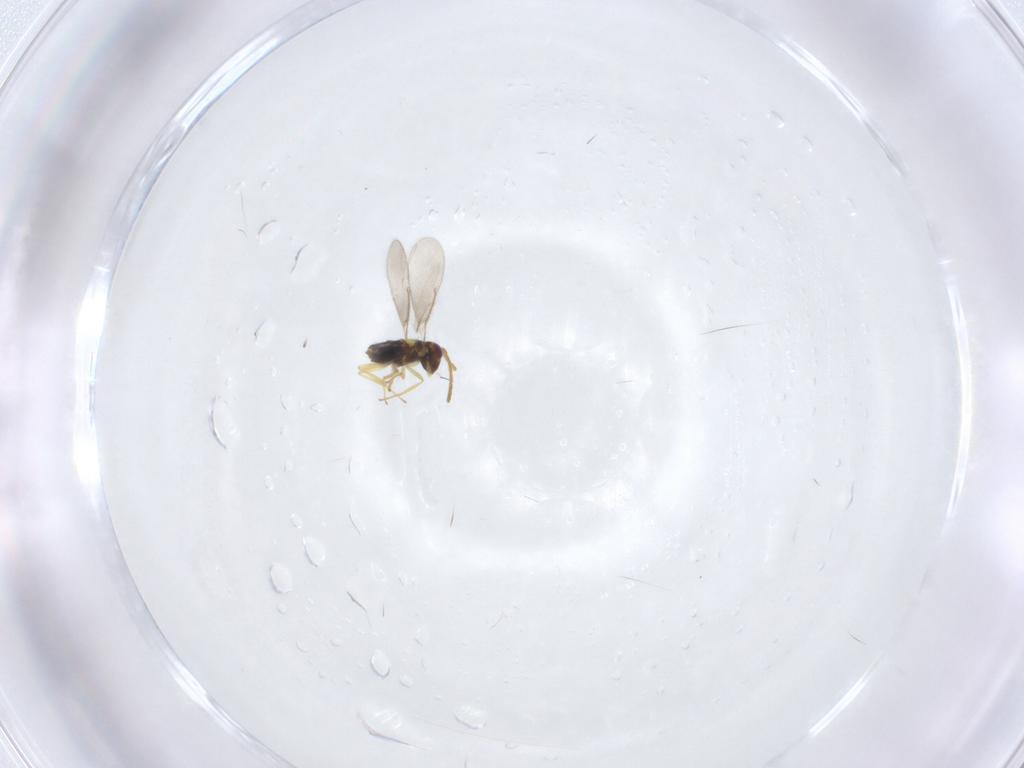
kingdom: Animalia
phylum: Arthropoda
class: Insecta
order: Hymenoptera
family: Aphelinidae
